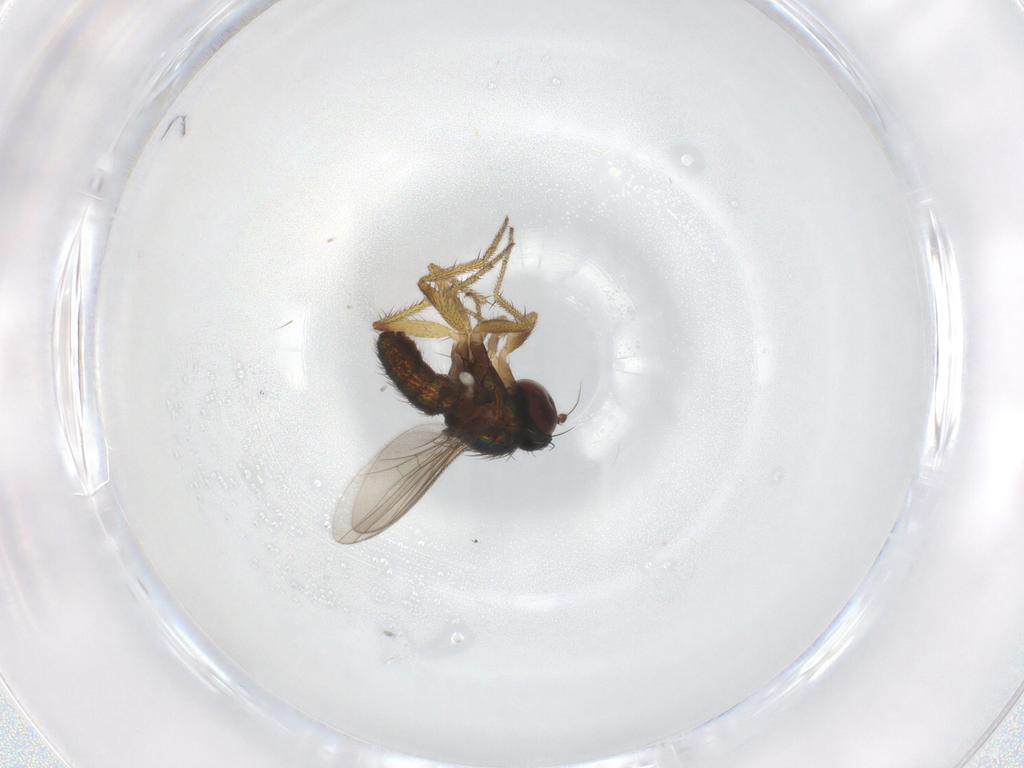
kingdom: Animalia
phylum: Arthropoda
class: Insecta
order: Diptera
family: Dolichopodidae
